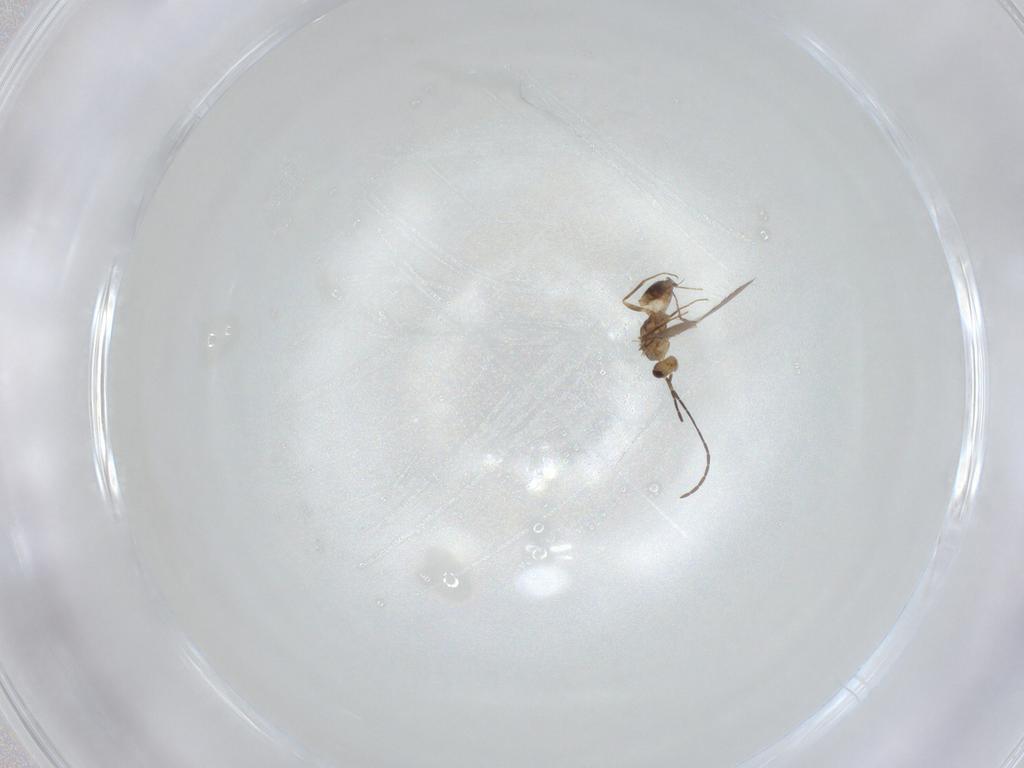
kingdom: Animalia
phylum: Arthropoda
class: Insecta
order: Hymenoptera
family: Mymaridae
